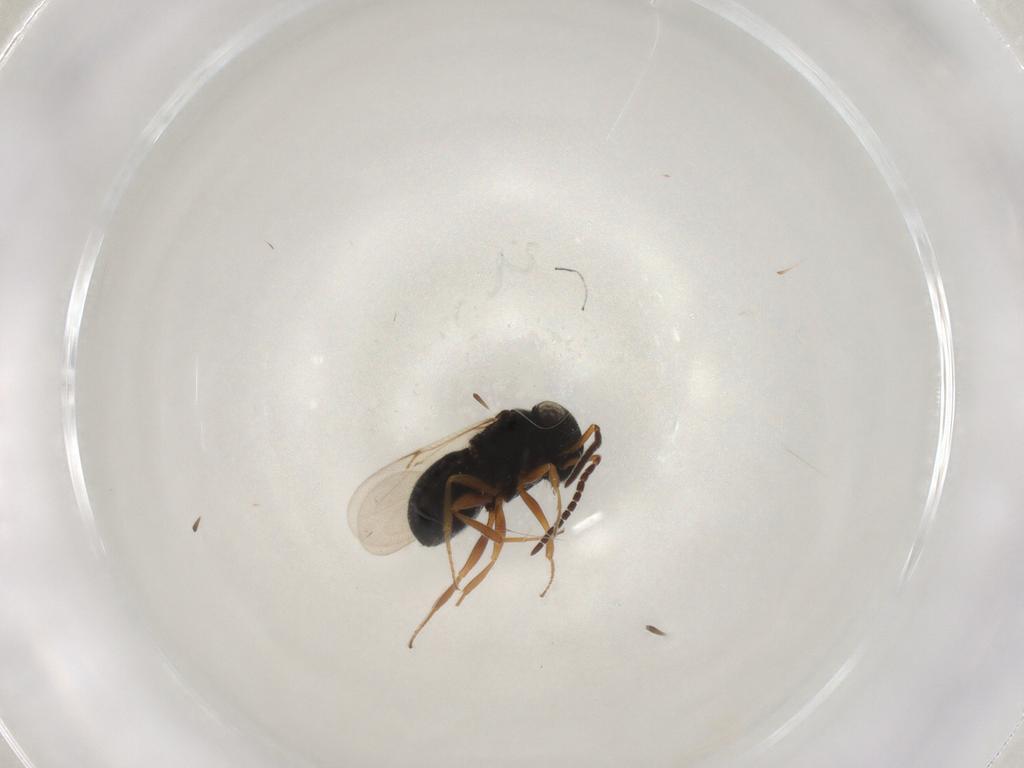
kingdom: Animalia
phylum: Arthropoda
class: Insecta
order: Hymenoptera
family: Scelionidae
